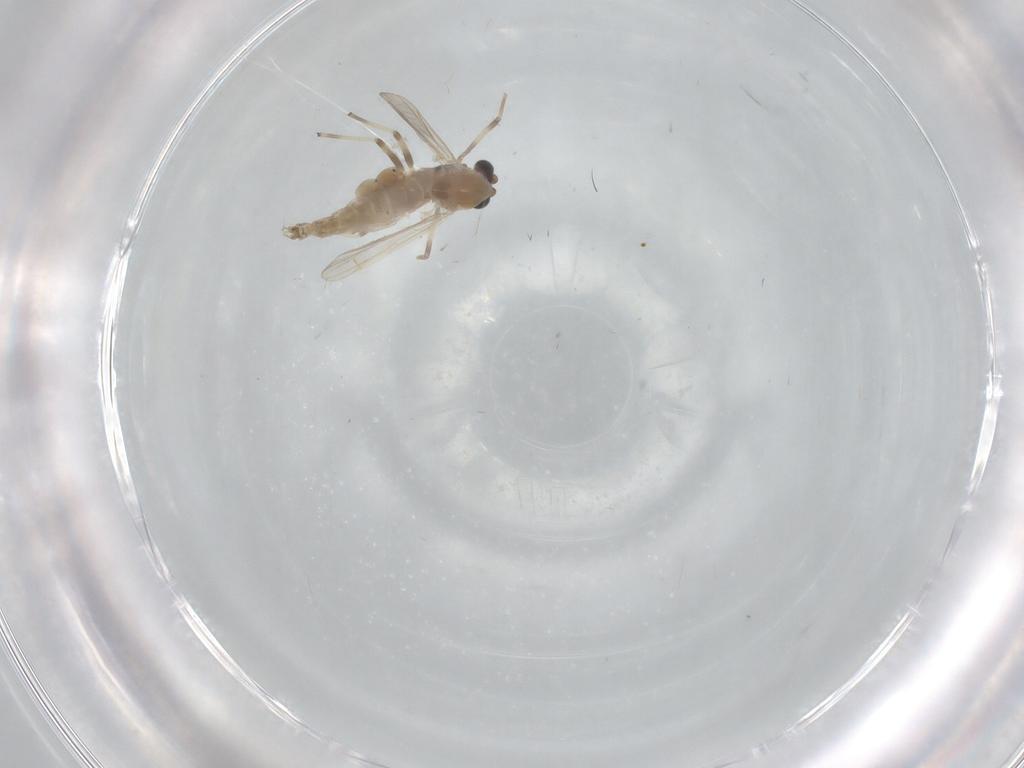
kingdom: Animalia
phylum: Arthropoda
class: Insecta
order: Diptera
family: Chironomidae
